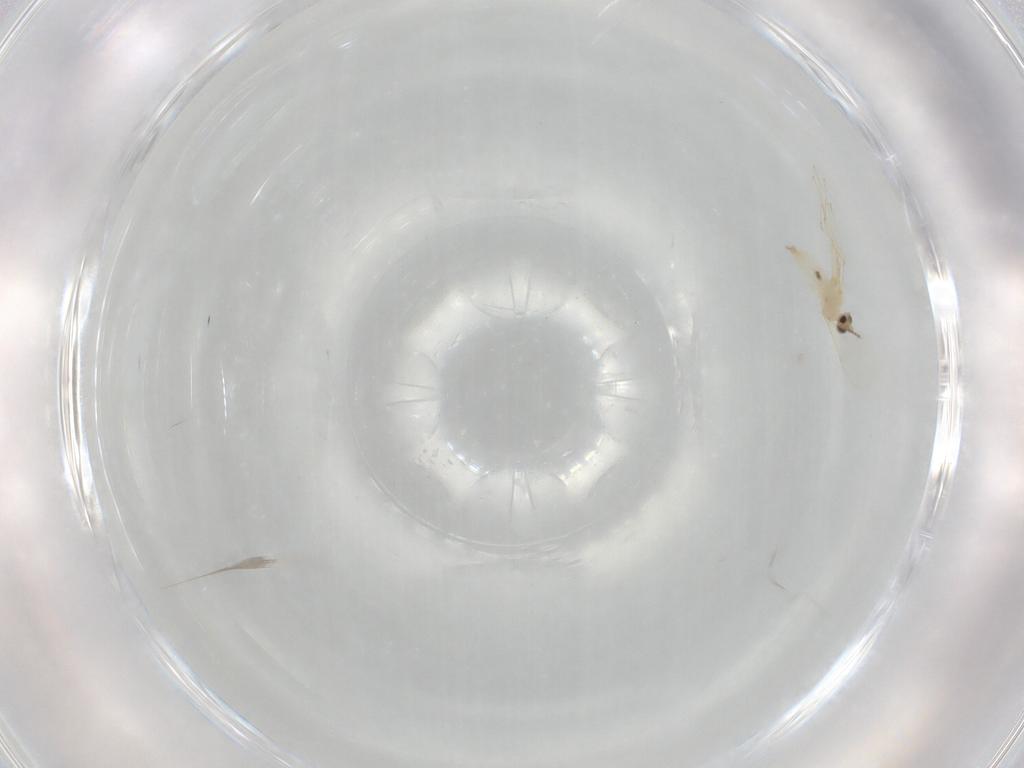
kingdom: Animalia
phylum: Arthropoda
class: Insecta
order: Diptera
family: Cecidomyiidae
